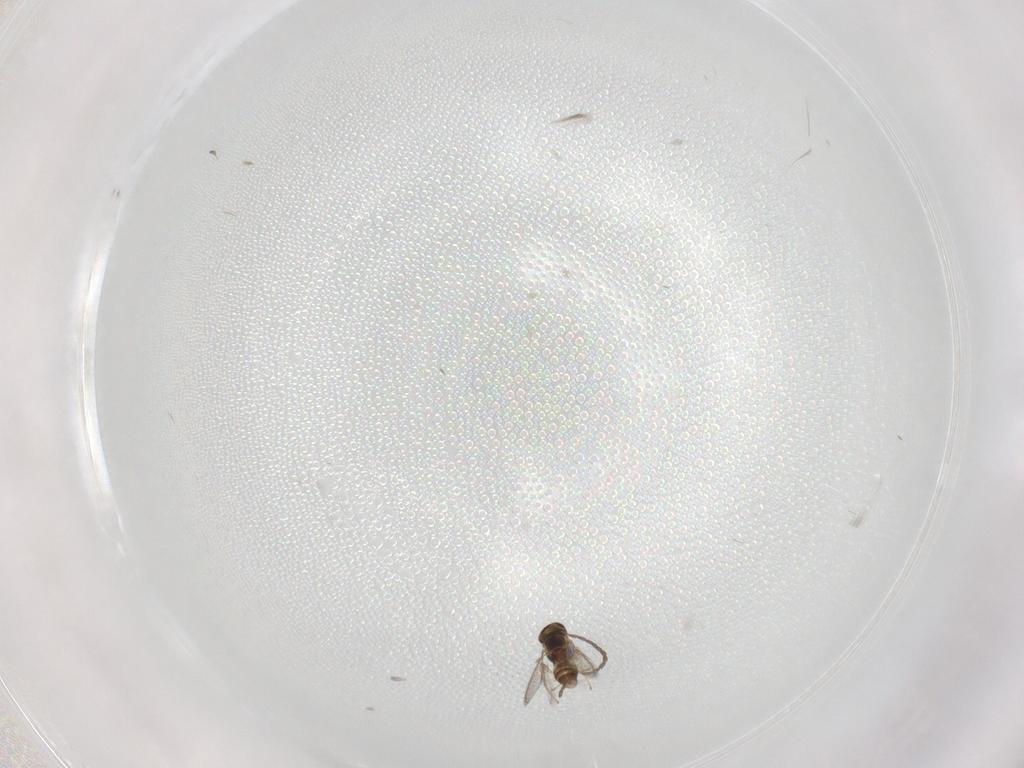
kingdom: Animalia
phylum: Arthropoda
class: Insecta
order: Hymenoptera
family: Mymaridae
